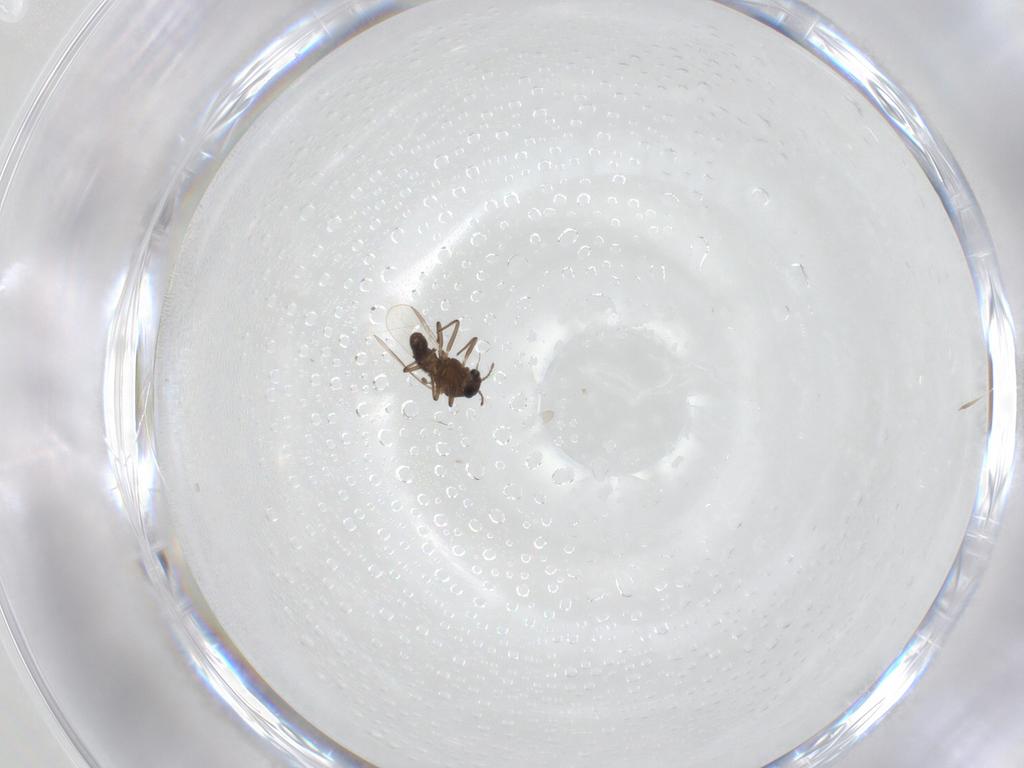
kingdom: Animalia
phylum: Arthropoda
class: Insecta
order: Diptera
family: Chironomidae
